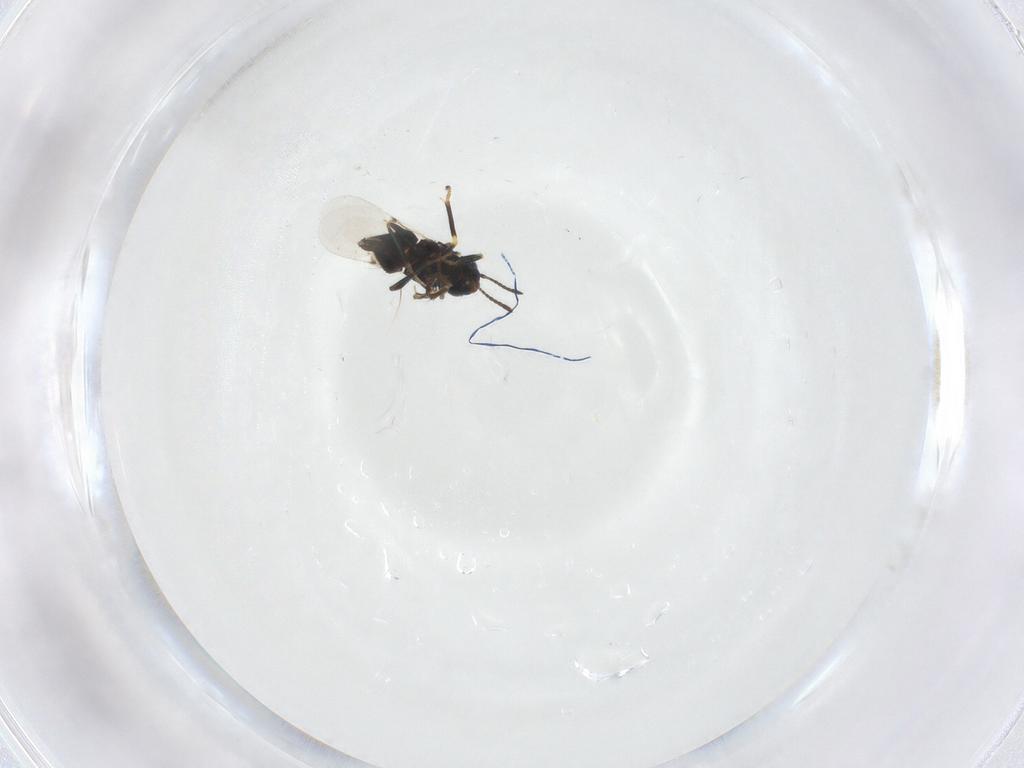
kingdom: Animalia
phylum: Arthropoda
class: Insecta
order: Hymenoptera
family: Encyrtidae
